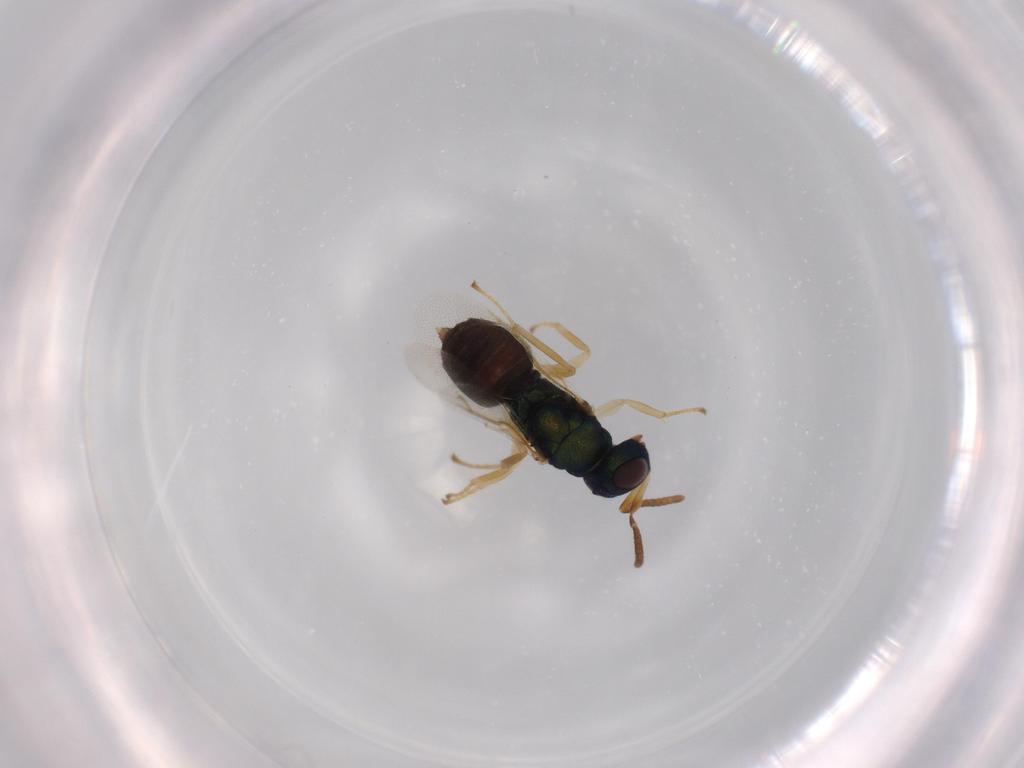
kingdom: Animalia
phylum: Arthropoda
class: Insecta
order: Hymenoptera
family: Pteromalidae
